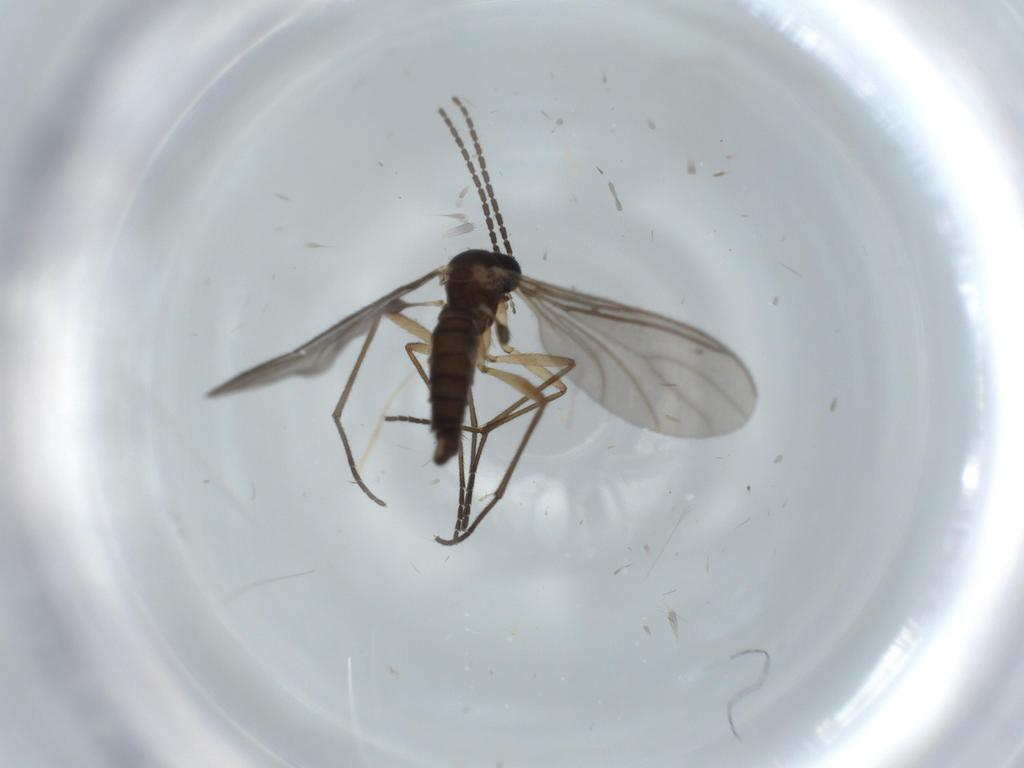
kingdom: Animalia
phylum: Arthropoda
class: Insecta
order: Diptera
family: Sciaridae
